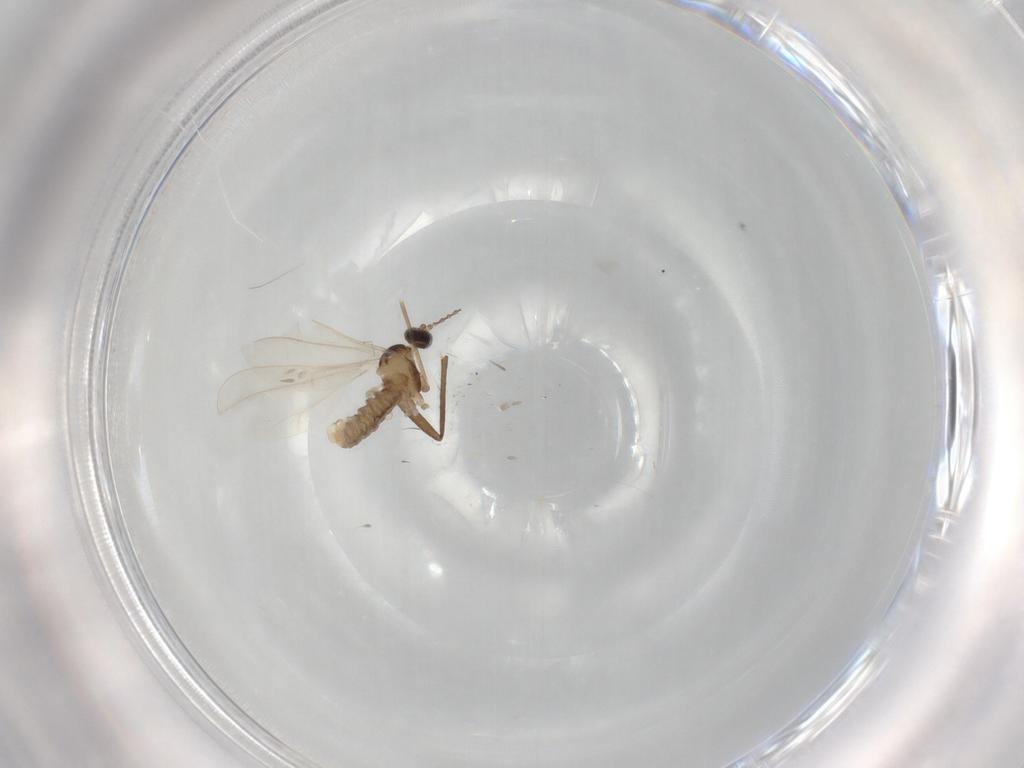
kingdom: Animalia
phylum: Arthropoda
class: Insecta
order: Diptera
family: Cecidomyiidae
